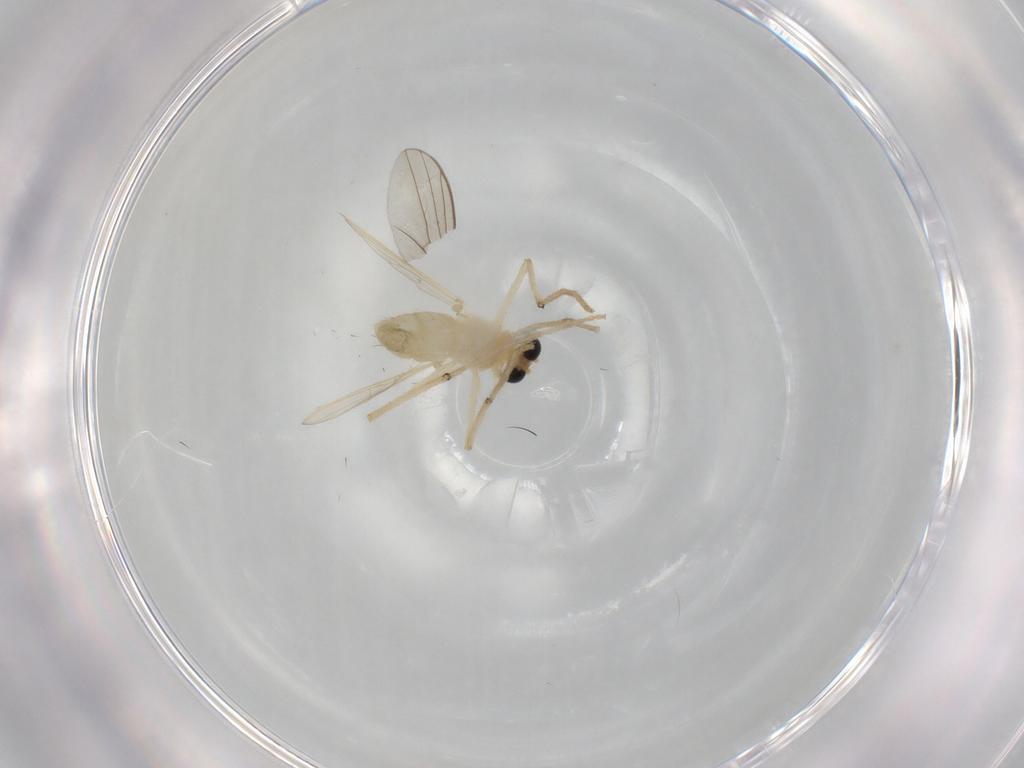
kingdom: Animalia
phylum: Arthropoda
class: Insecta
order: Diptera
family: Chironomidae
